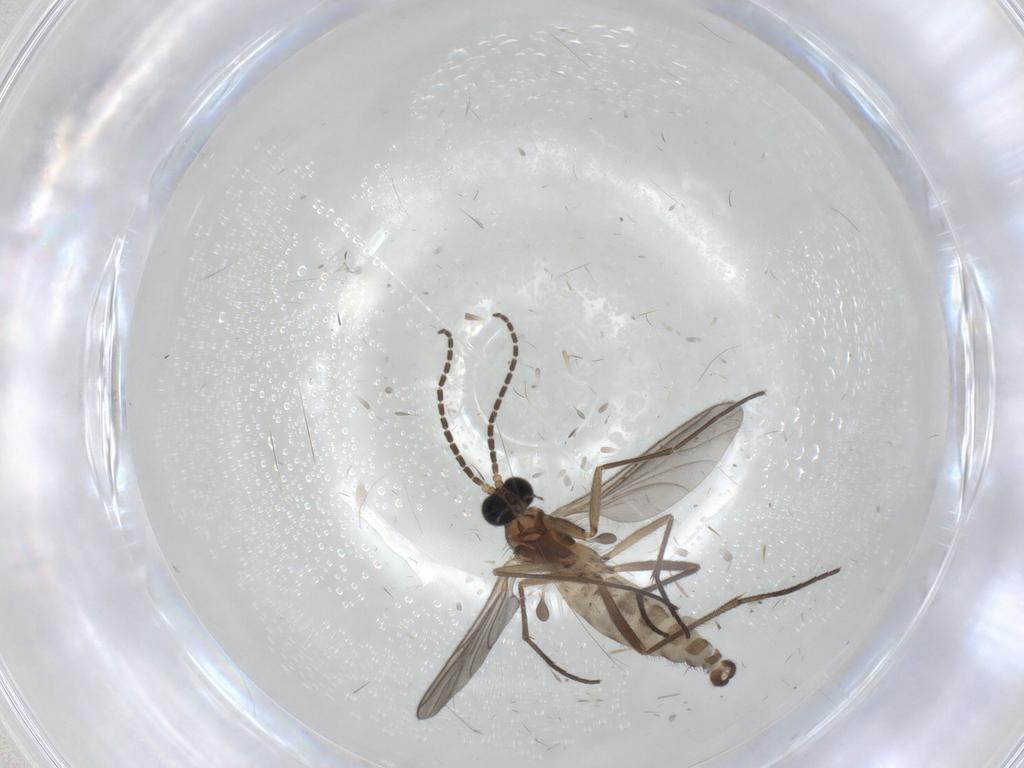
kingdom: Animalia
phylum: Arthropoda
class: Insecta
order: Diptera
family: Sciaridae
